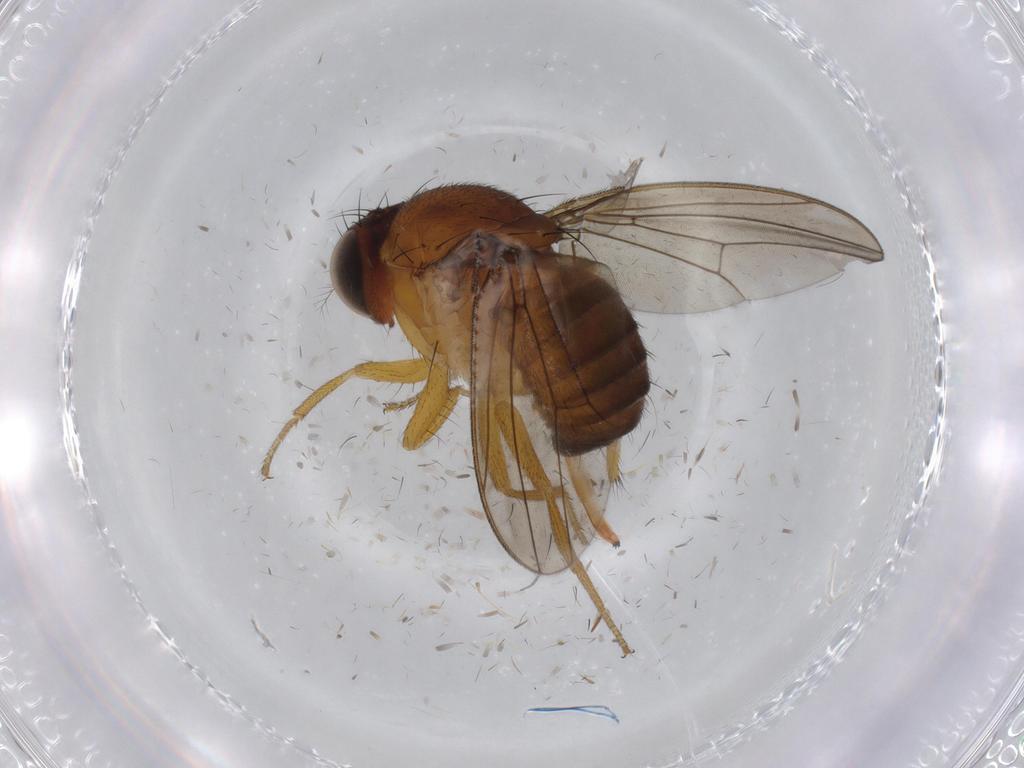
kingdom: Animalia
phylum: Arthropoda
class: Insecta
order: Diptera
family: Drosophilidae
